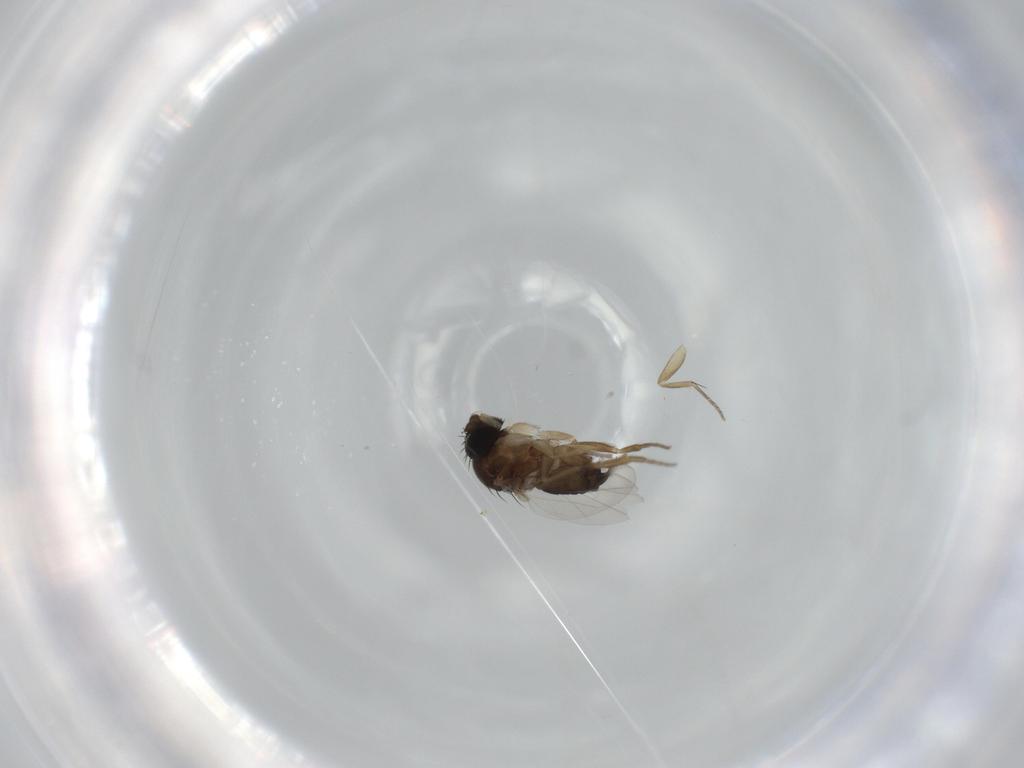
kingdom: Animalia
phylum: Arthropoda
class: Insecta
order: Diptera
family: Phoridae
